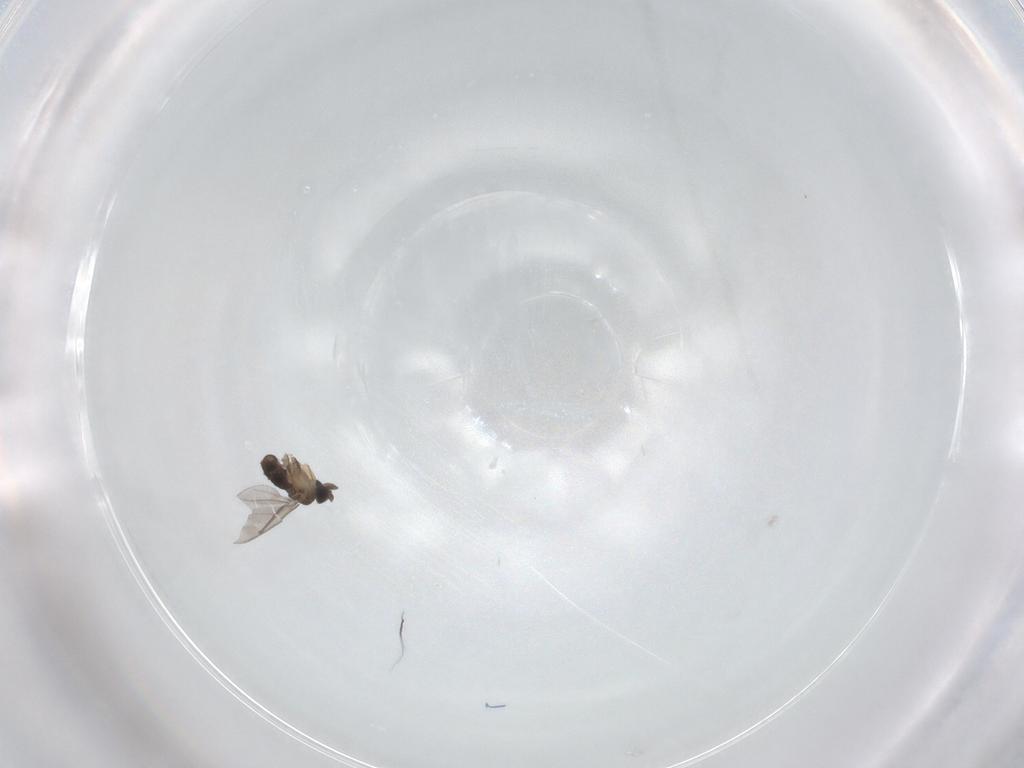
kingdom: Animalia
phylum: Arthropoda
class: Insecta
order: Diptera
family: Phoridae
